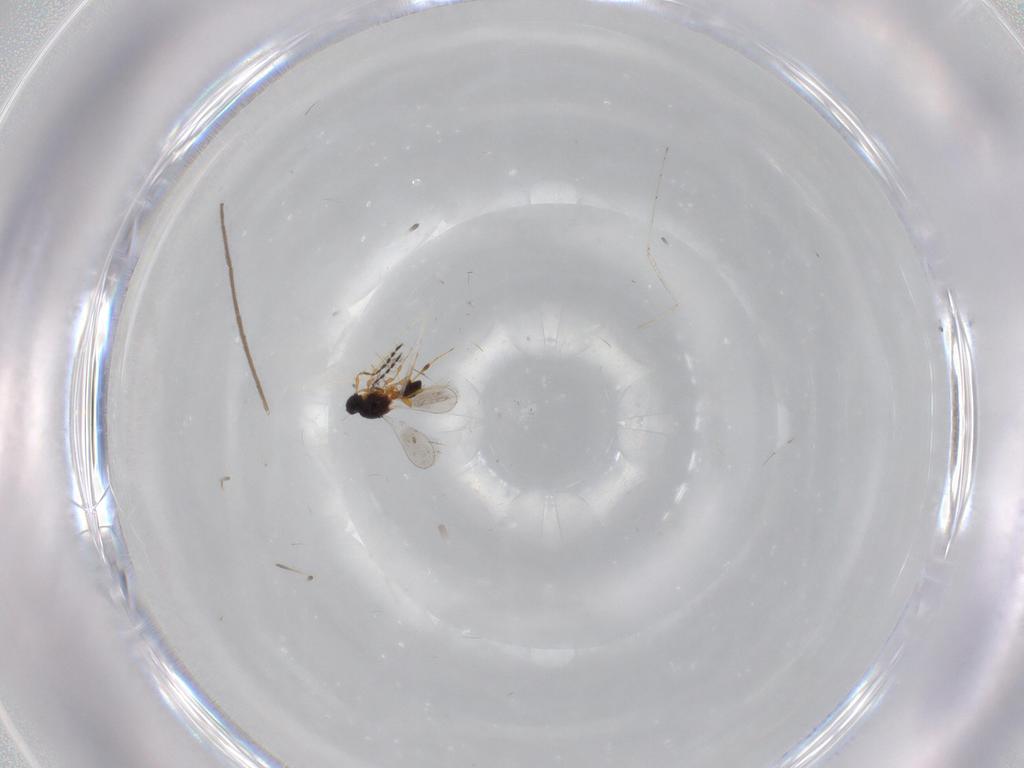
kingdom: Animalia
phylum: Arthropoda
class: Insecta
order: Hymenoptera
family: Platygastridae
